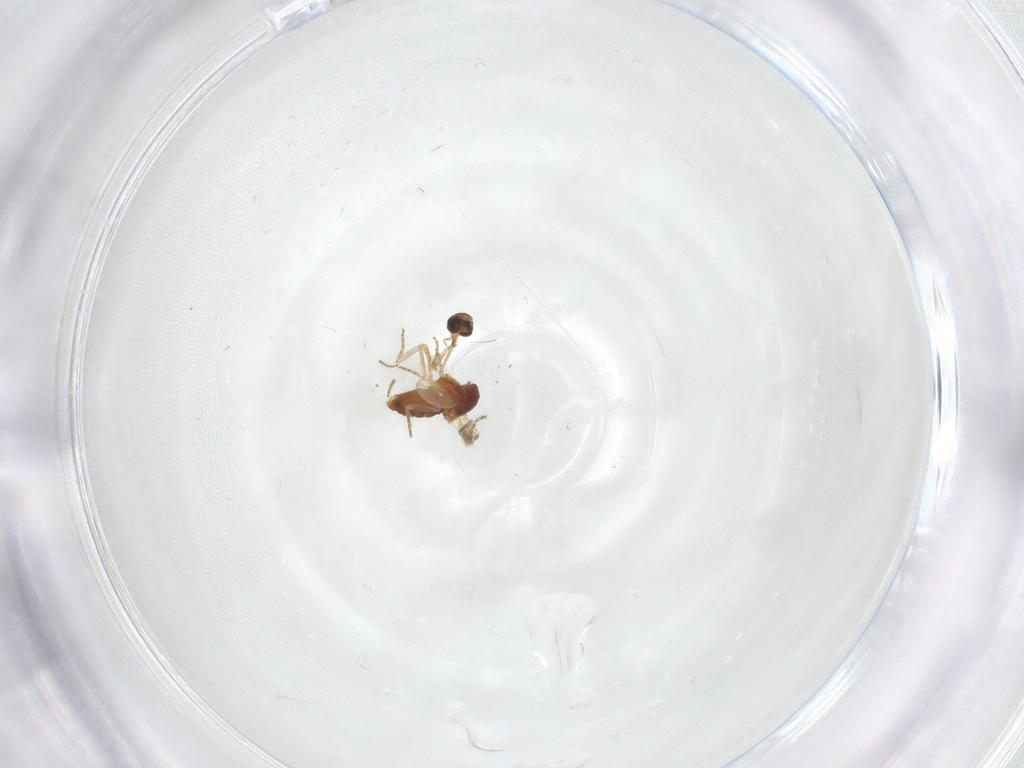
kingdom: Animalia
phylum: Arthropoda
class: Insecta
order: Diptera
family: Ceratopogonidae
